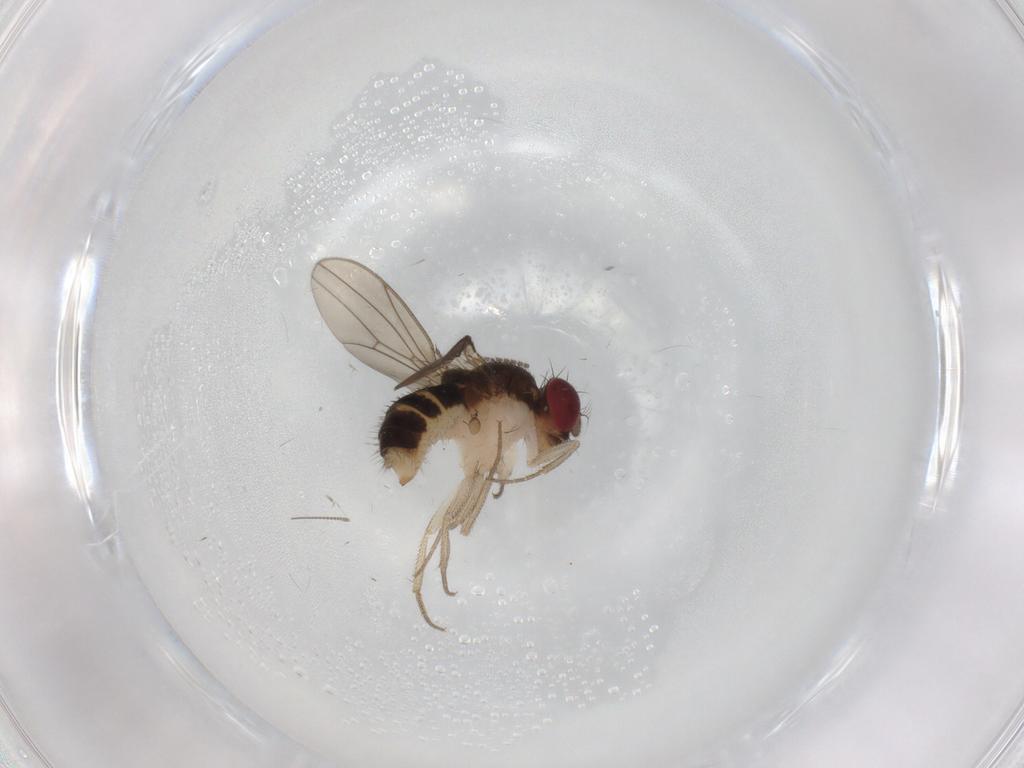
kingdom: Animalia
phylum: Arthropoda
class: Insecta
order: Diptera
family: Drosophilidae
